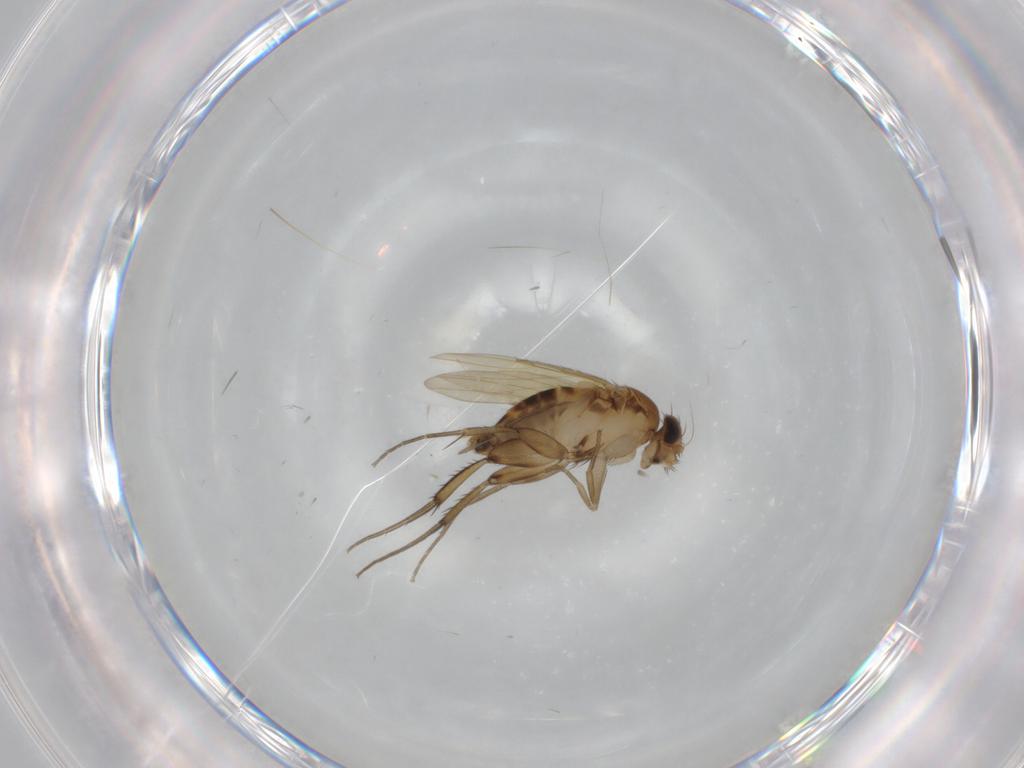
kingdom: Animalia
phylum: Arthropoda
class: Insecta
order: Diptera
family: Phoridae
